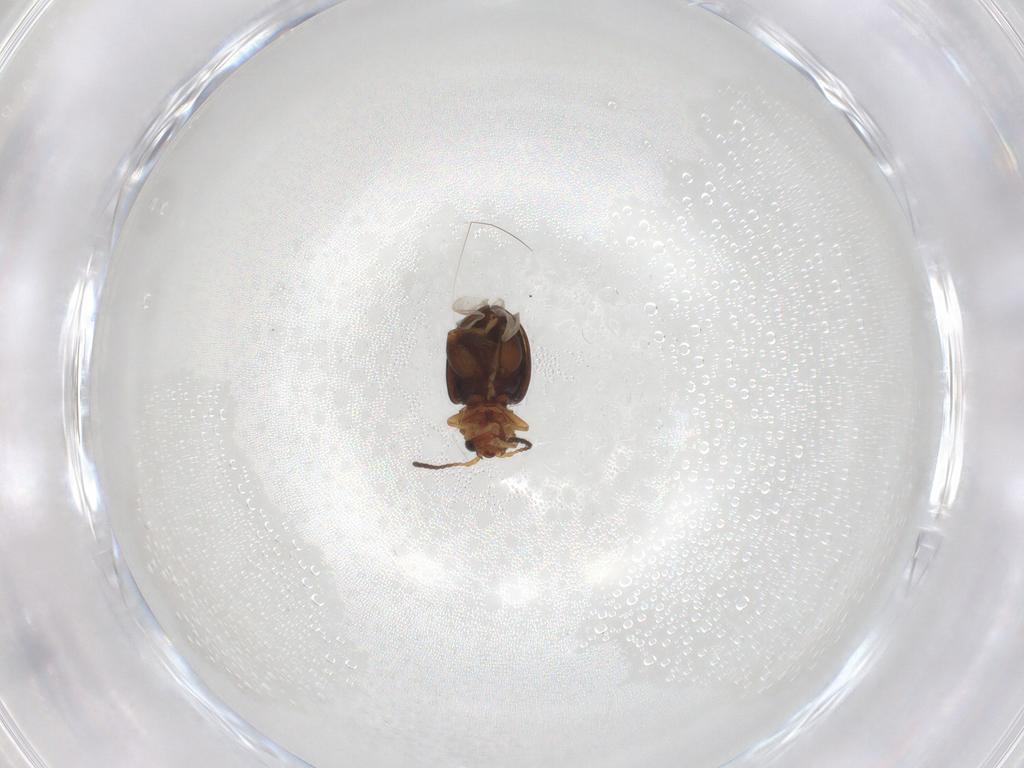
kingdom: Animalia
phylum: Arthropoda
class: Insecta
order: Coleoptera
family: Chrysomelidae
